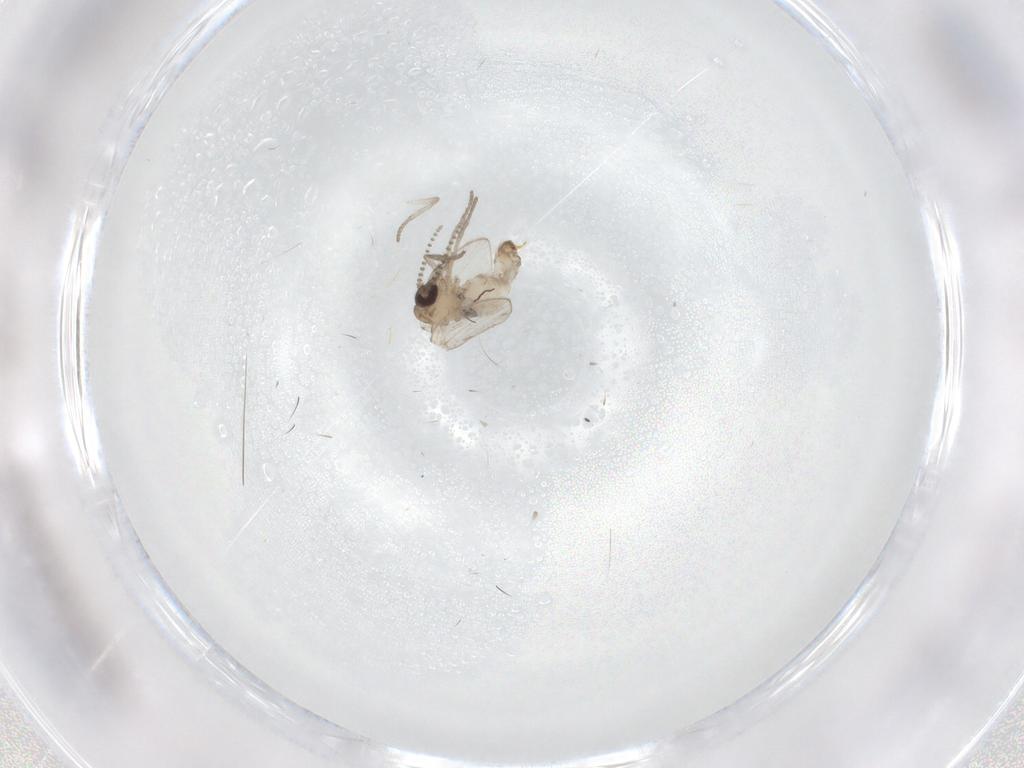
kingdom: Animalia
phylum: Arthropoda
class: Insecta
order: Diptera
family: Psychodidae
